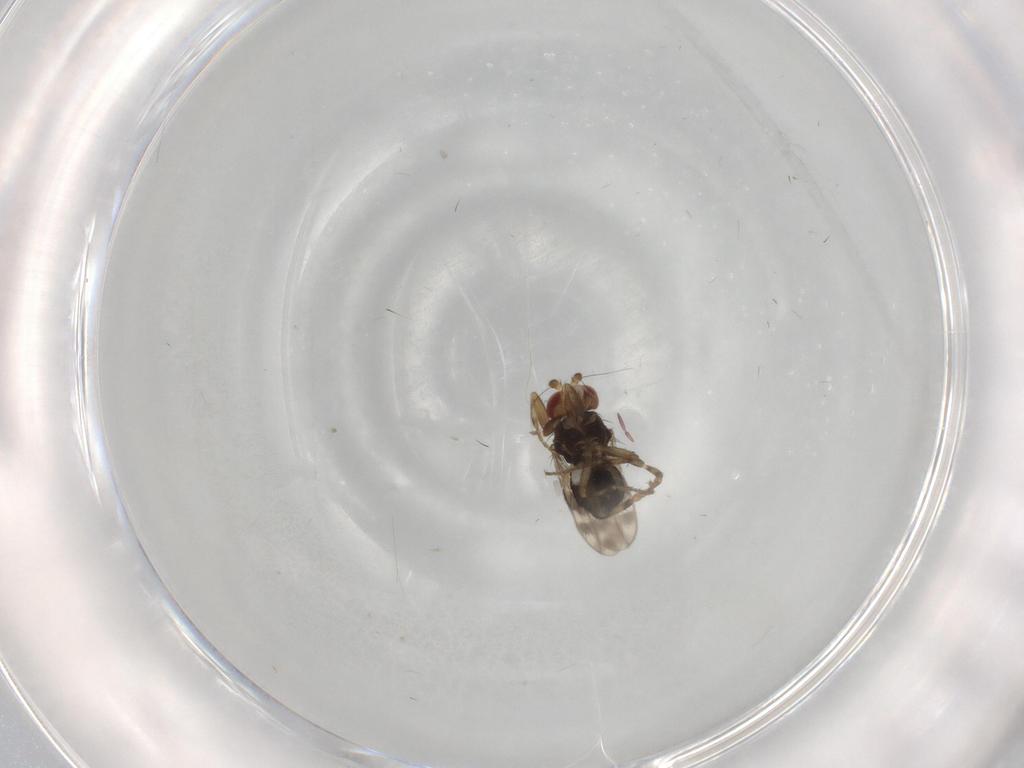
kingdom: Animalia
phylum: Arthropoda
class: Insecta
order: Diptera
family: Sphaeroceridae
